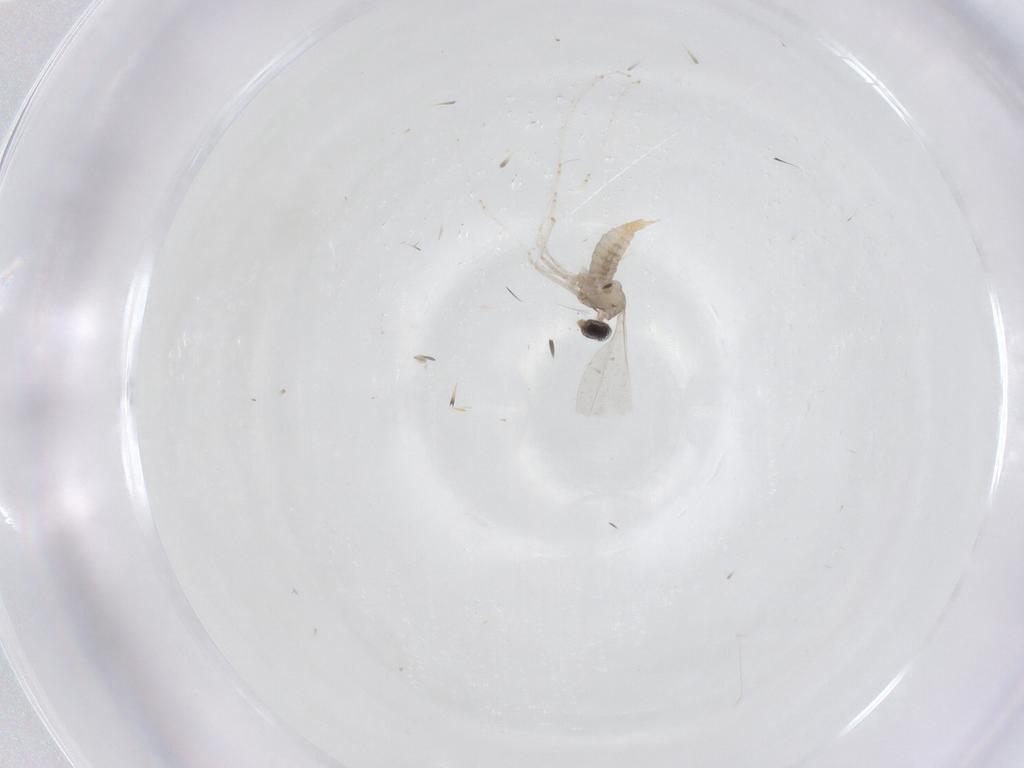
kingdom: Animalia
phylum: Arthropoda
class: Insecta
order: Diptera
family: Cecidomyiidae
